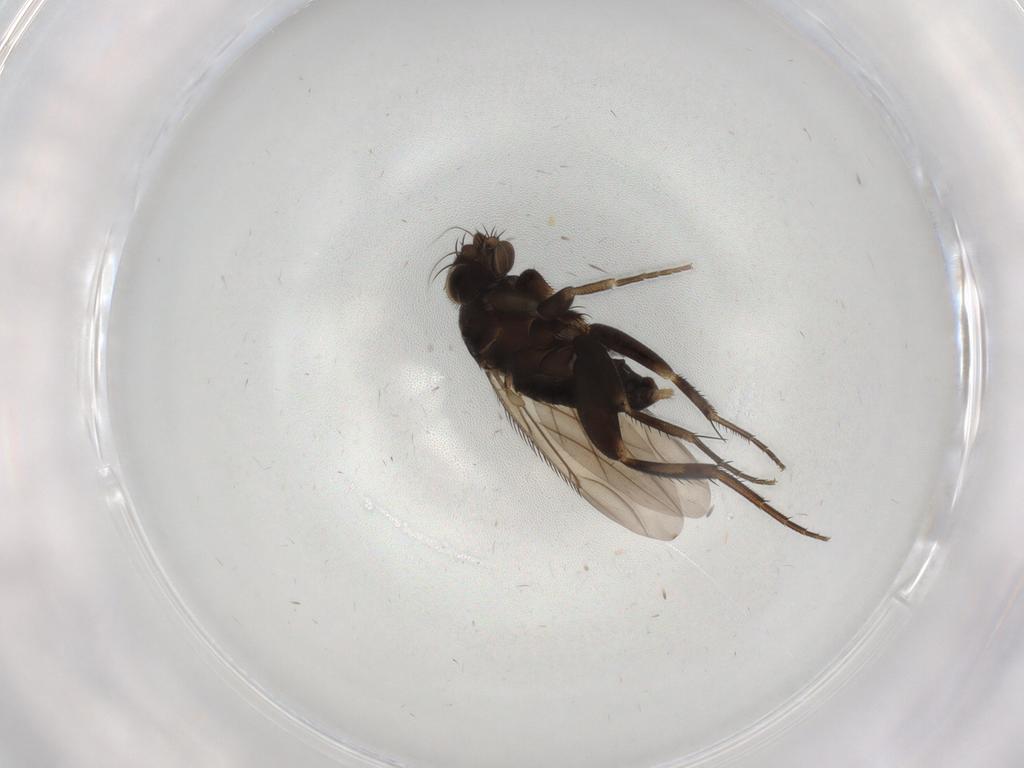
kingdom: Animalia
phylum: Arthropoda
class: Insecta
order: Diptera
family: Phoridae
